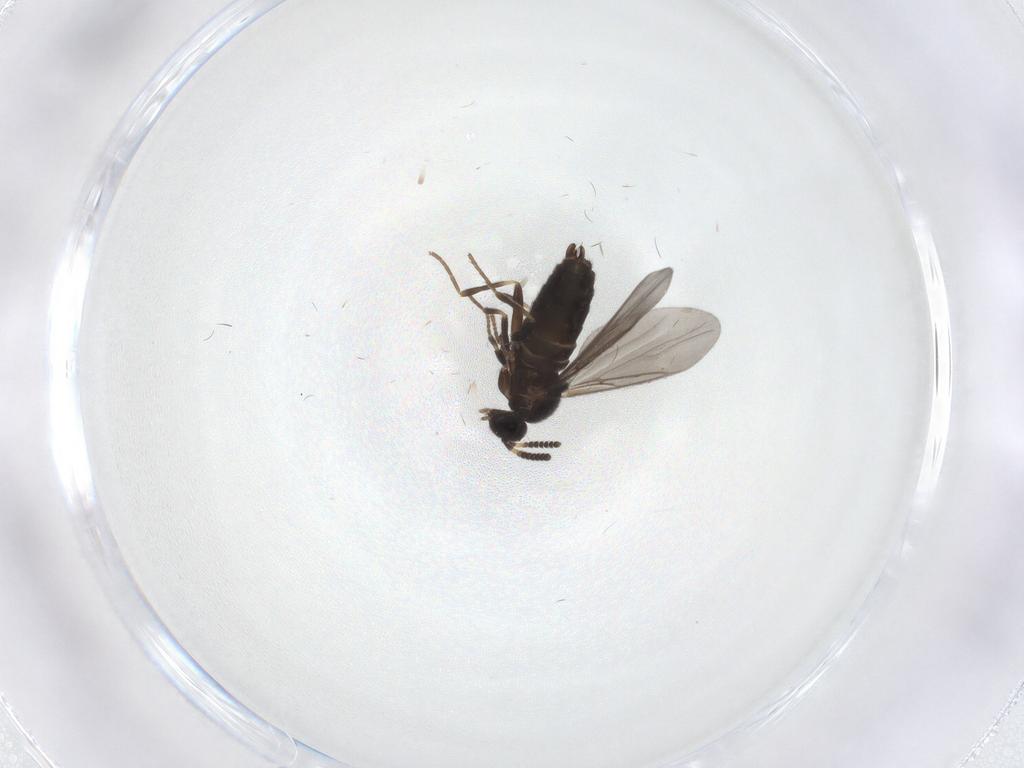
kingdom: Animalia
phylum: Arthropoda
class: Insecta
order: Diptera
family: Scatopsidae
